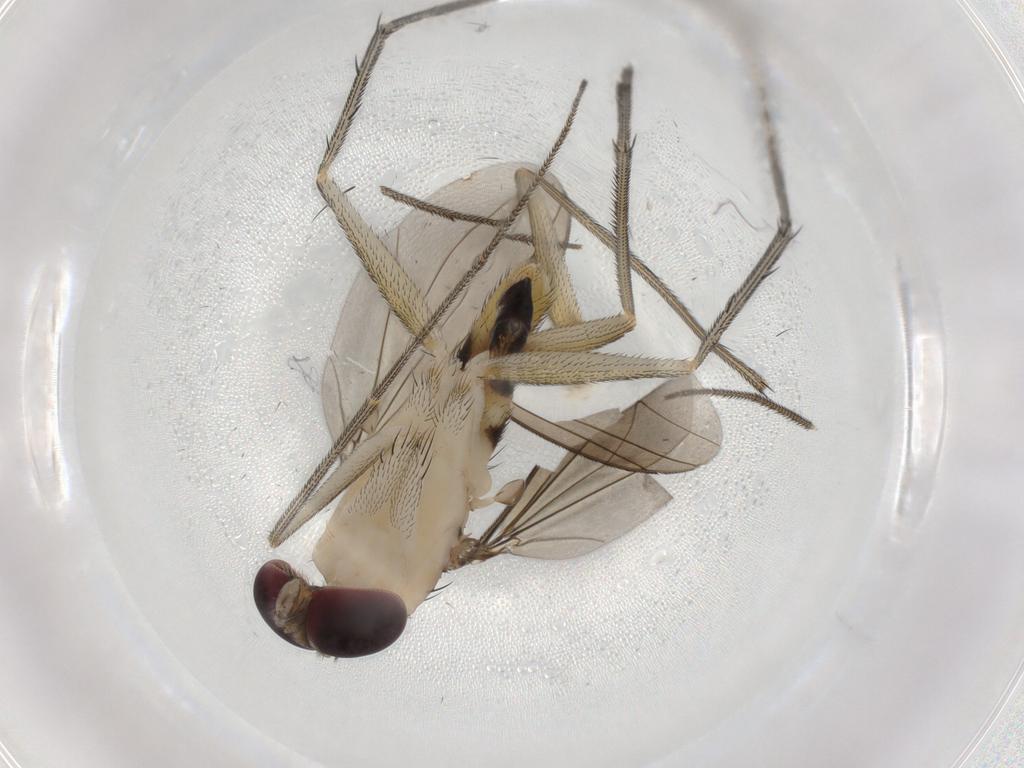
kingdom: Animalia
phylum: Arthropoda
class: Insecta
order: Diptera
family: Dolichopodidae
